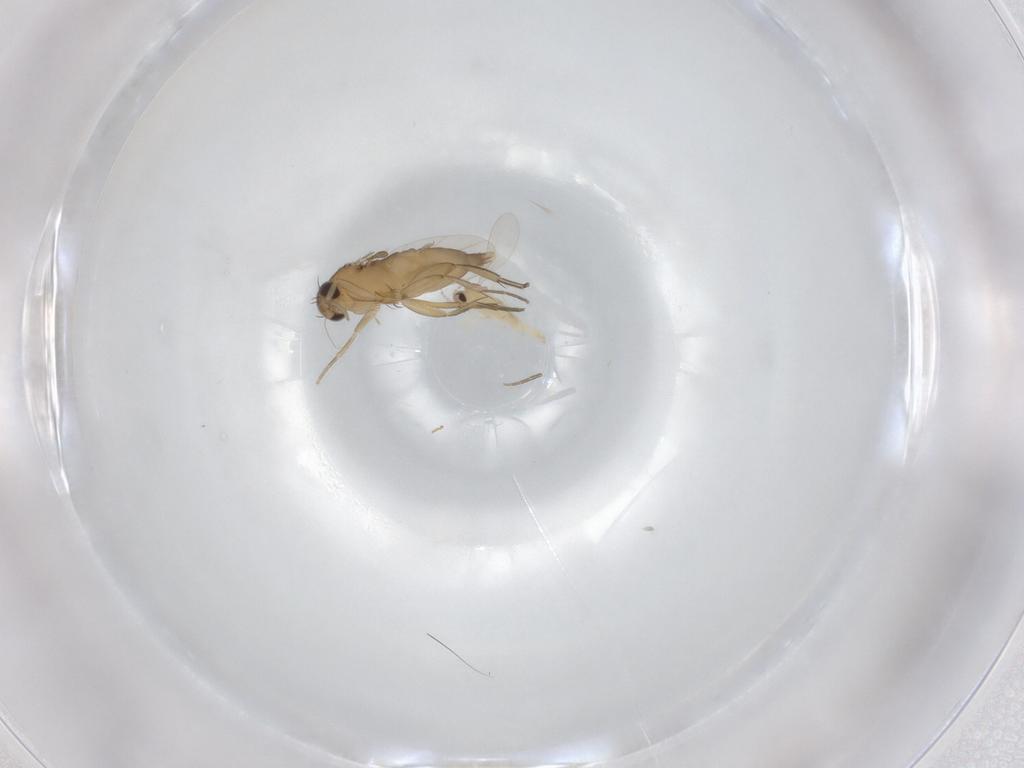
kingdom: Animalia
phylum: Arthropoda
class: Insecta
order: Diptera
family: Cecidomyiidae
